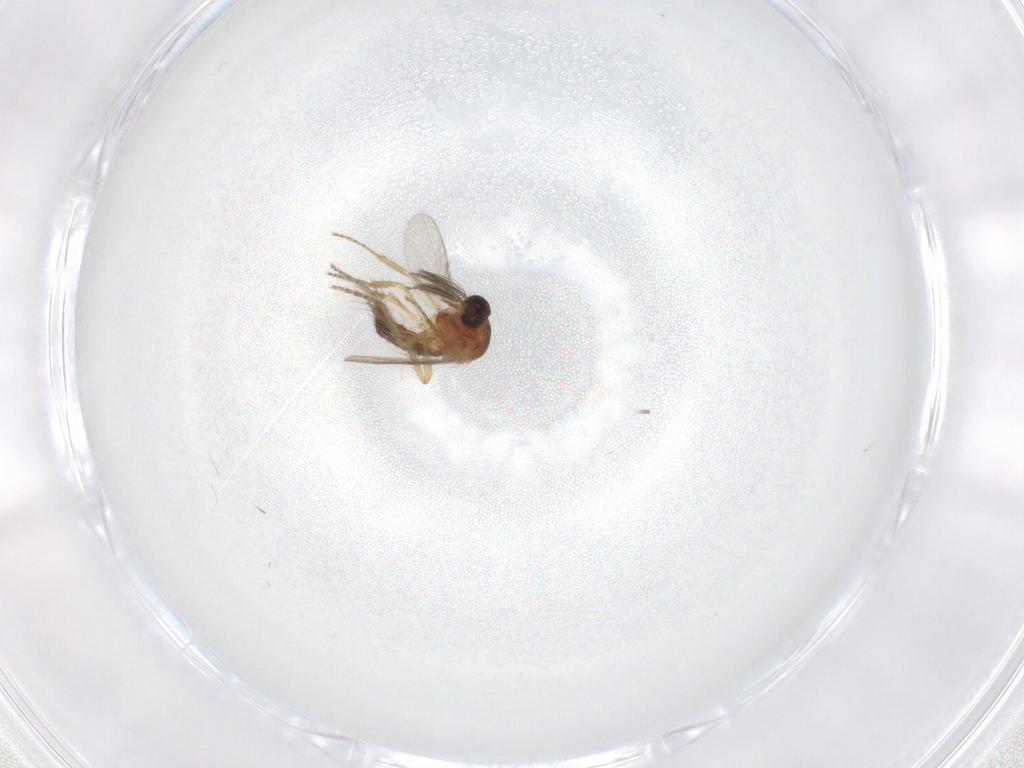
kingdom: Animalia
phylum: Arthropoda
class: Insecta
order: Diptera
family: Ceratopogonidae
